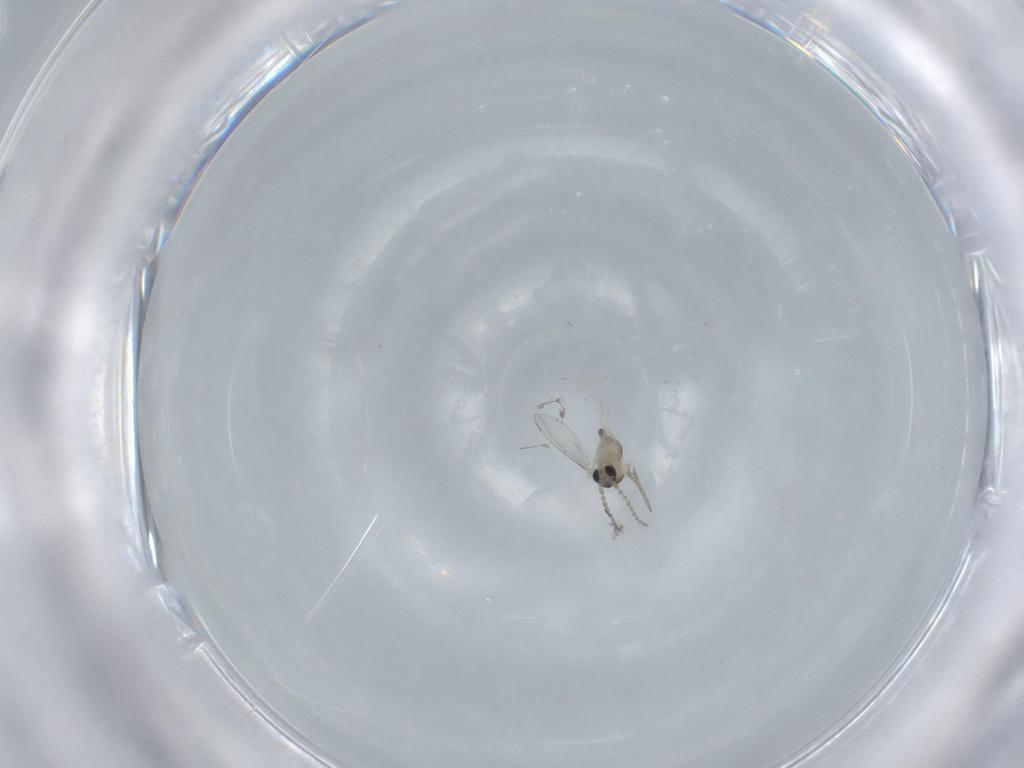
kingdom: Animalia
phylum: Arthropoda
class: Insecta
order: Diptera
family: Cecidomyiidae
